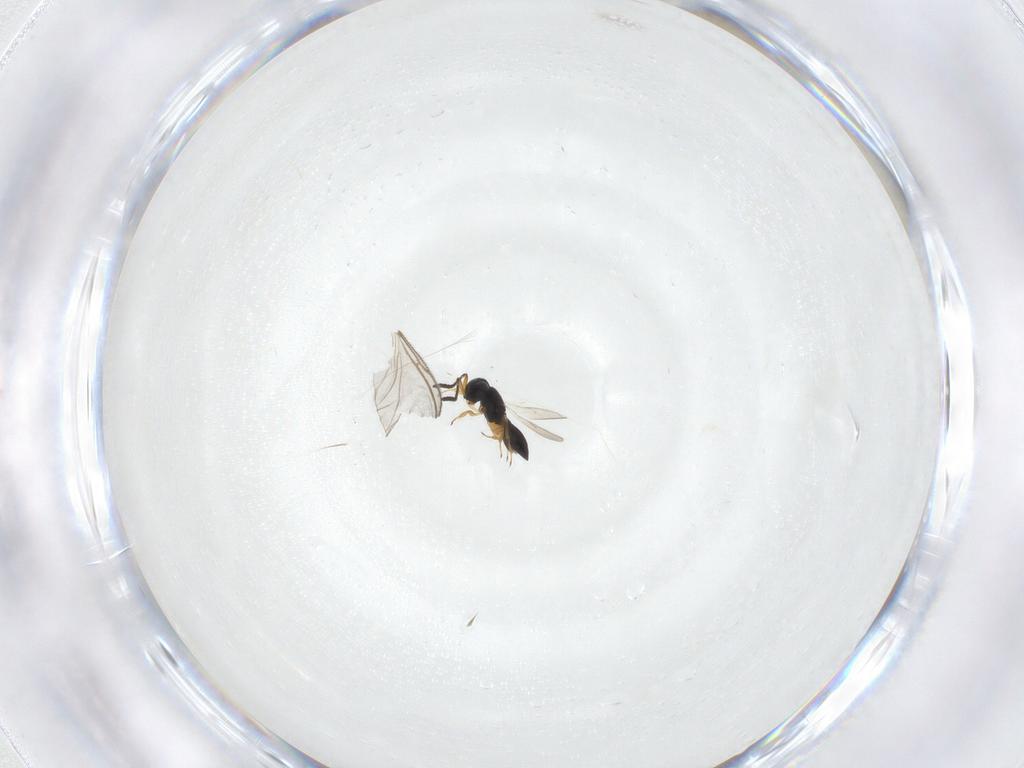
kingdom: Animalia
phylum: Arthropoda
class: Insecta
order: Hymenoptera
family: Scelionidae
